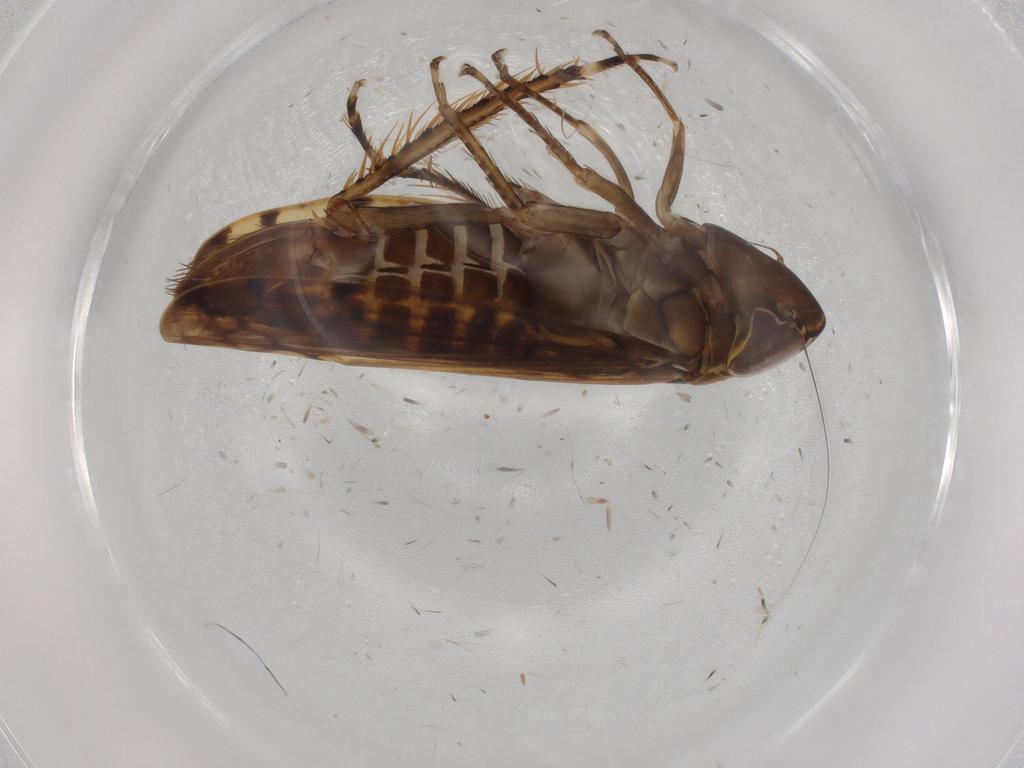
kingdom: Animalia
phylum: Arthropoda
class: Insecta
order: Hemiptera
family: Cicadellidae
